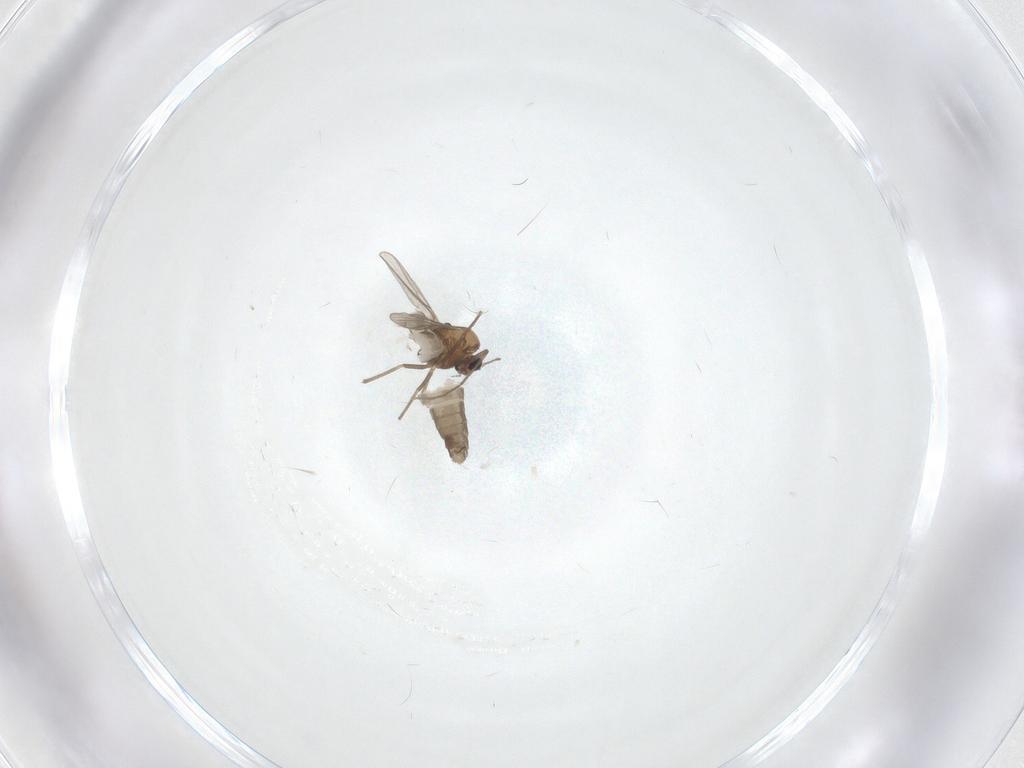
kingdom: Animalia
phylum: Arthropoda
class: Insecta
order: Diptera
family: Chironomidae
